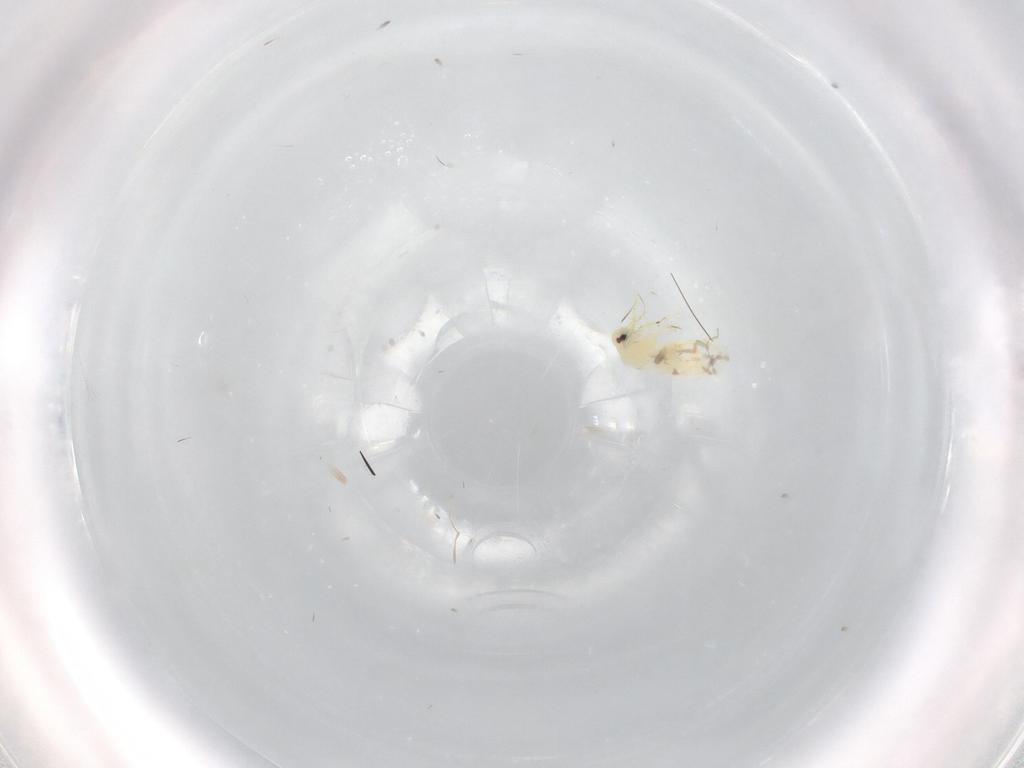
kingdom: Animalia
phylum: Arthropoda
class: Insecta
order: Hemiptera
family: Aleyrodidae
